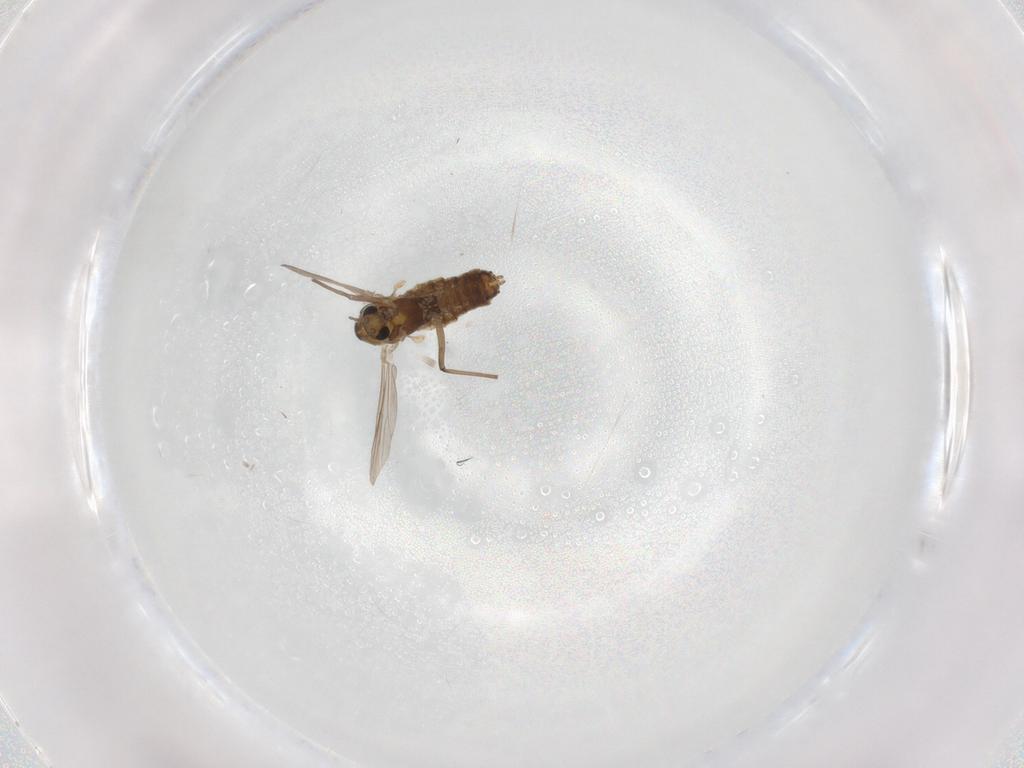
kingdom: Animalia
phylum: Arthropoda
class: Insecta
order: Diptera
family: Chironomidae
